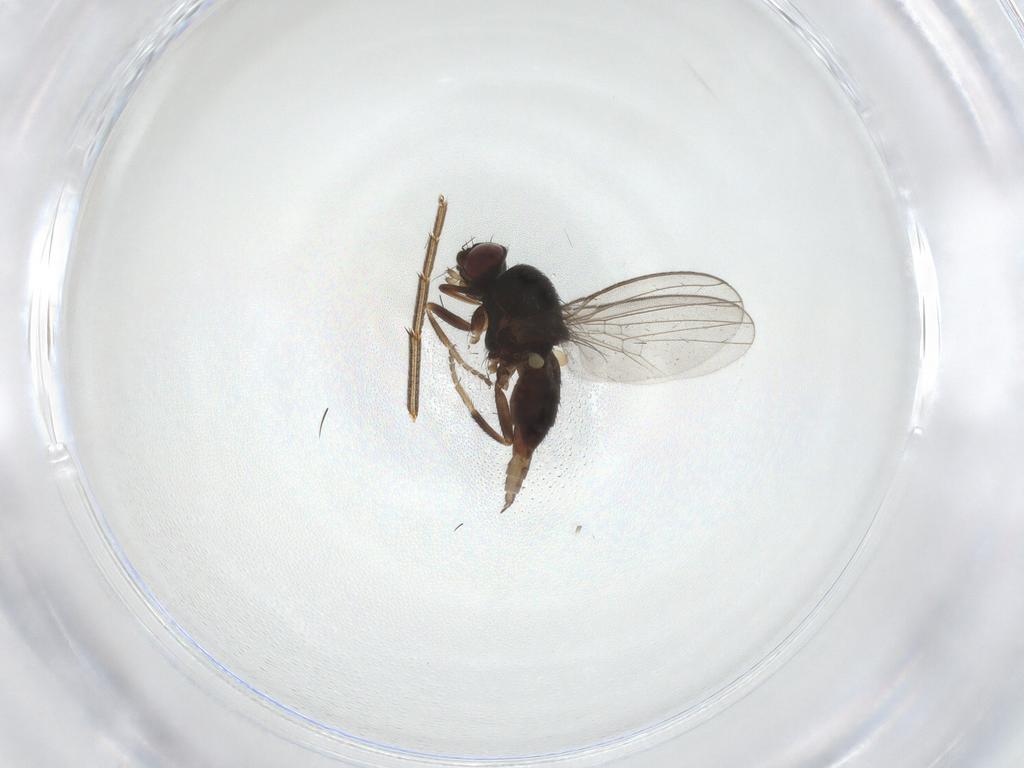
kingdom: Animalia
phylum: Arthropoda
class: Insecta
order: Diptera
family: Milichiidae
